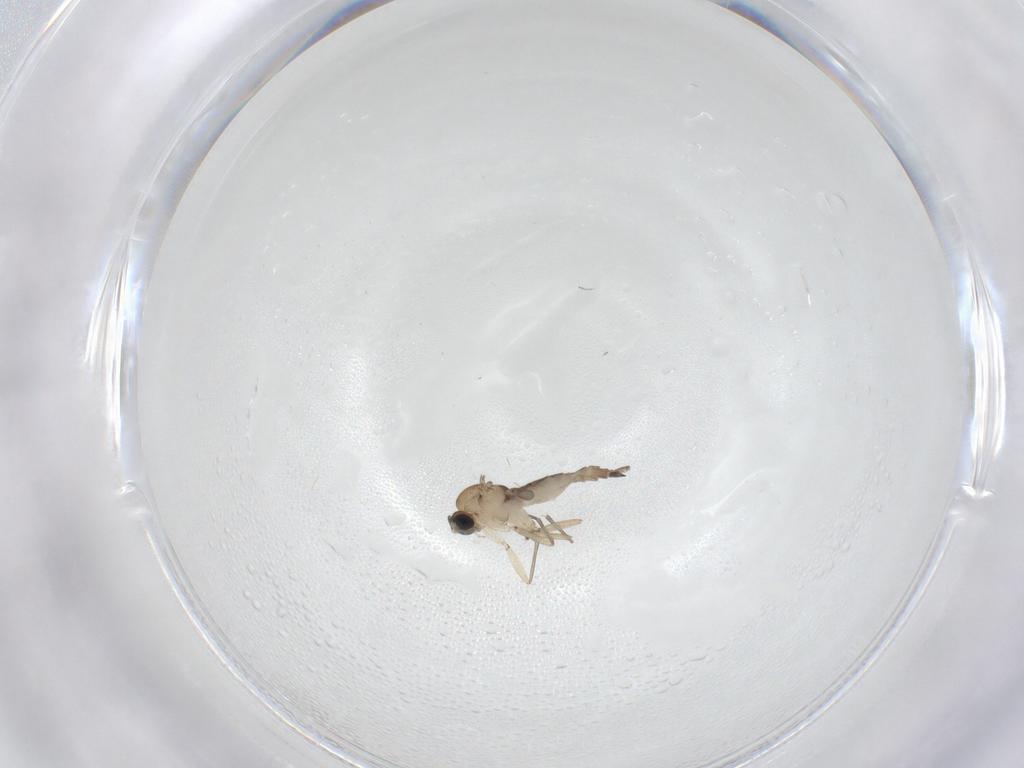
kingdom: Animalia
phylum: Arthropoda
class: Insecta
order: Diptera
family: Sciaridae
